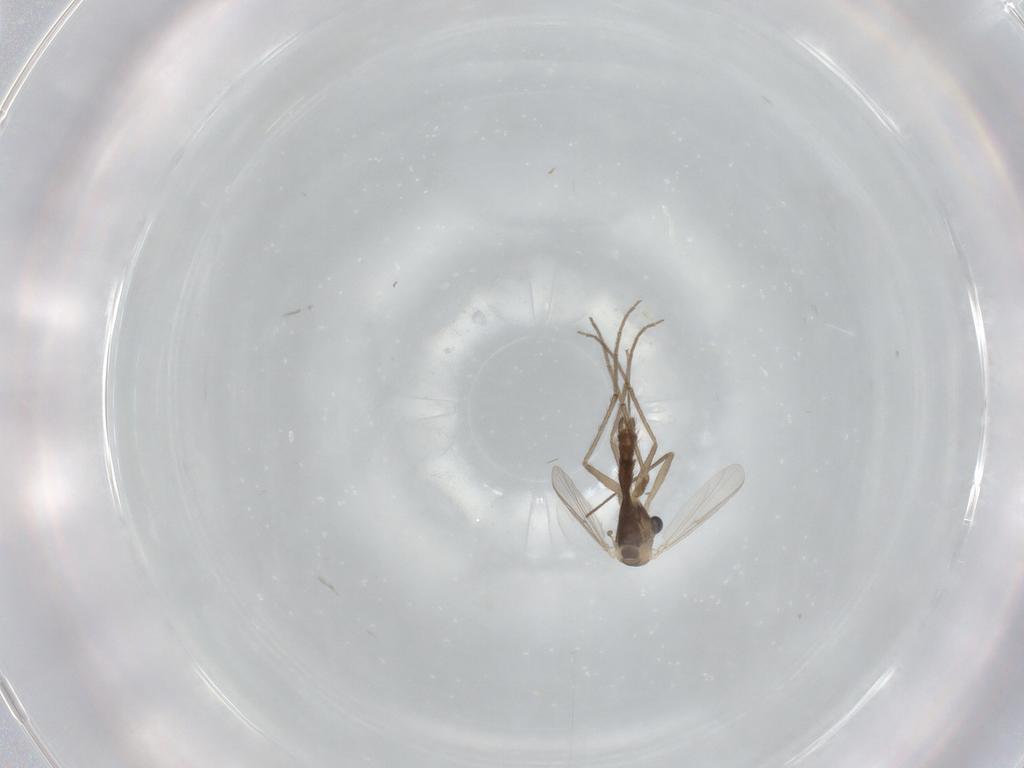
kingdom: Animalia
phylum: Arthropoda
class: Insecta
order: Diptera
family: Chironomidae
